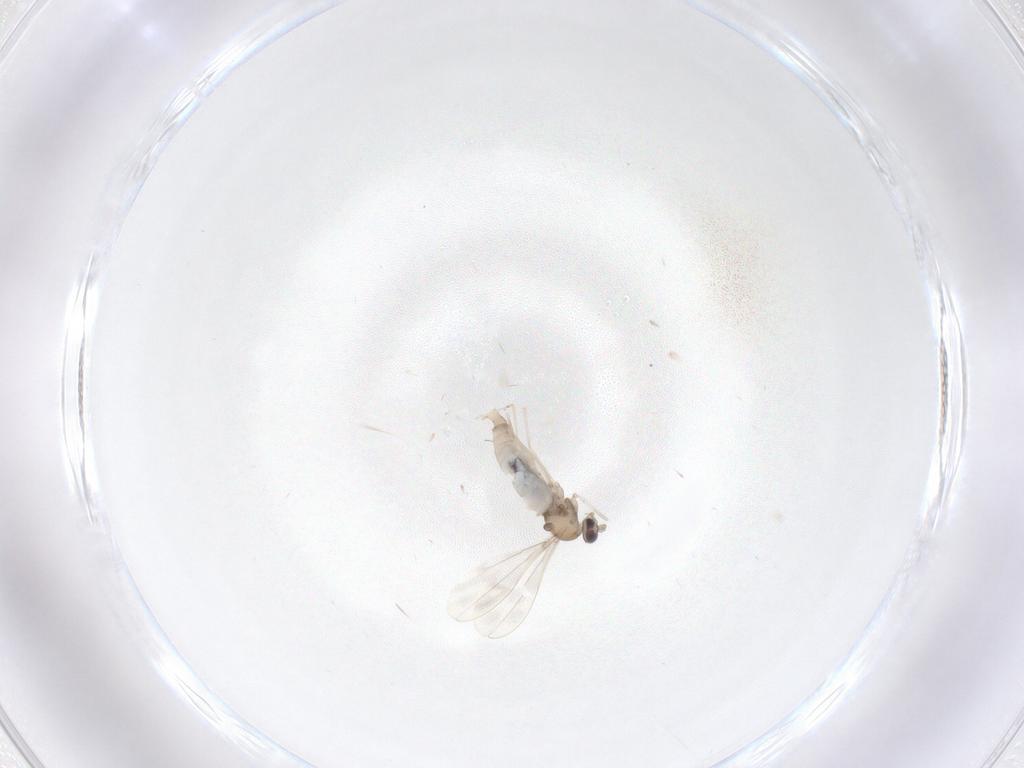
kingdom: Animalia
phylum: Arthropoda
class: Insecta
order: Diptera
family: Cecidomyiidae
